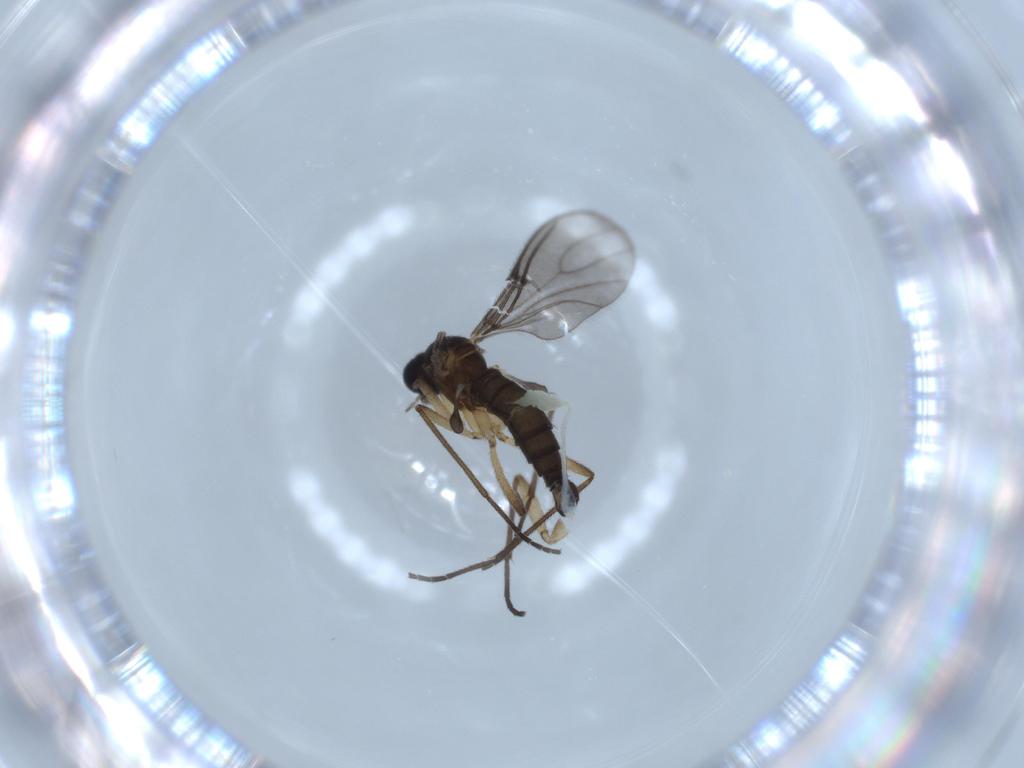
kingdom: Animalia
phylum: Arthropoda
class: Insecta
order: Diptera
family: Sciaridae
